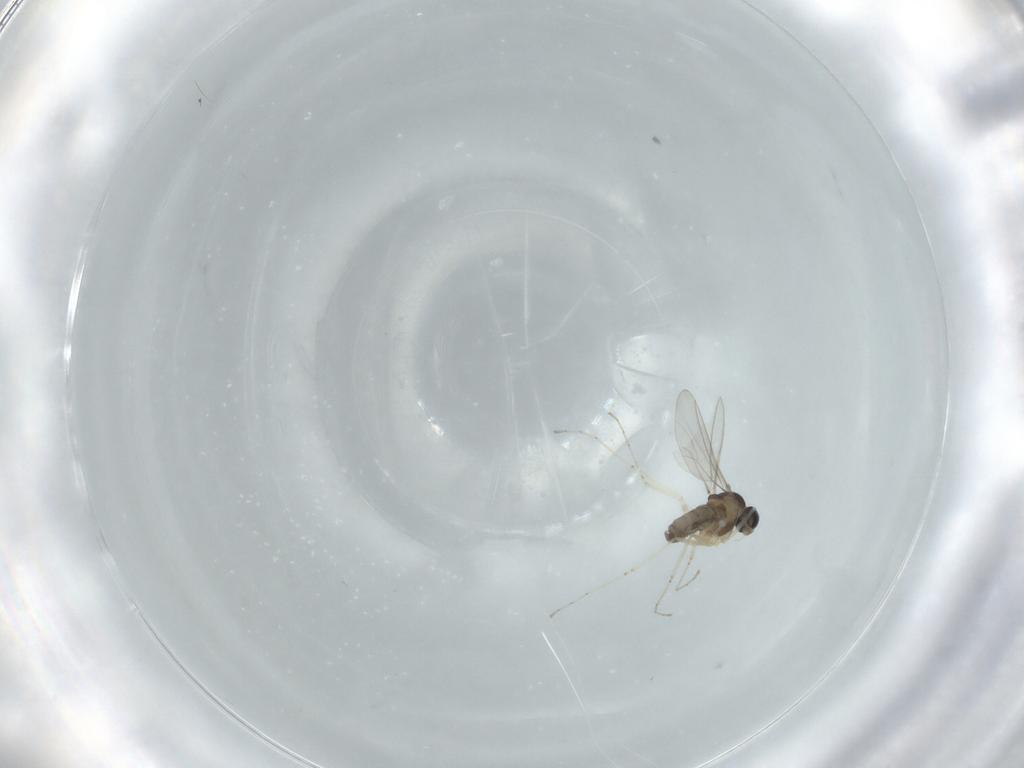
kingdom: Animalia
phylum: Arthropoda
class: Insecta
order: Diptera
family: Cecidomyiidae
